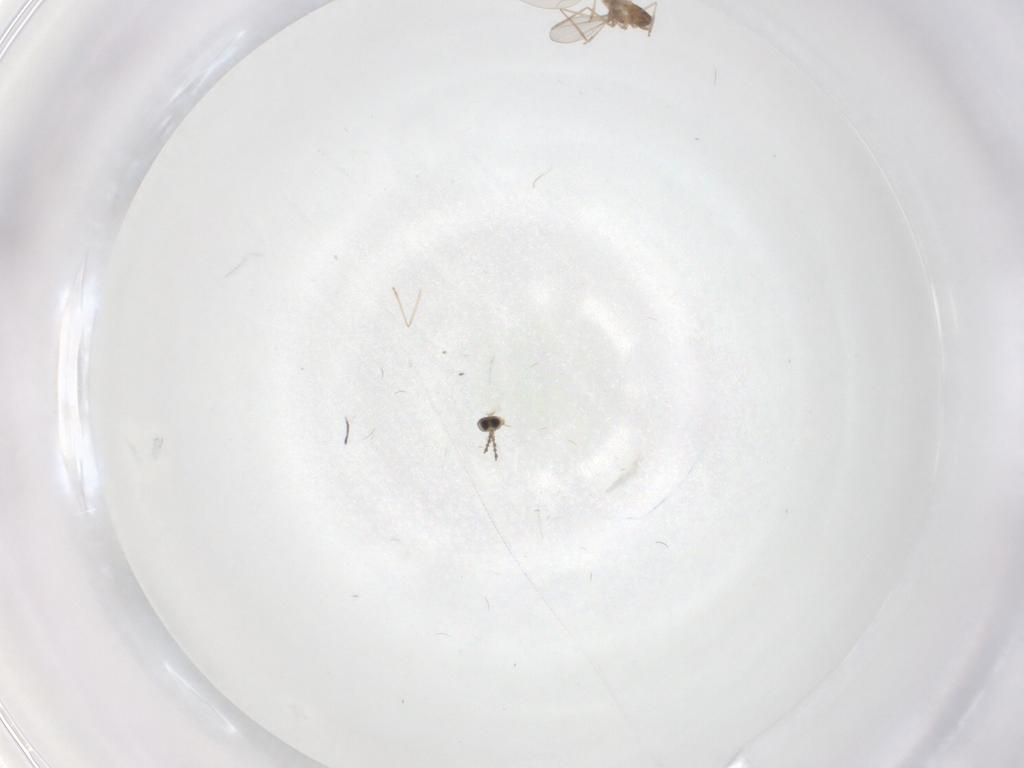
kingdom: Animalia
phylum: Arthropoda
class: Insecta
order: Diptera
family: Cecidomyiidae
